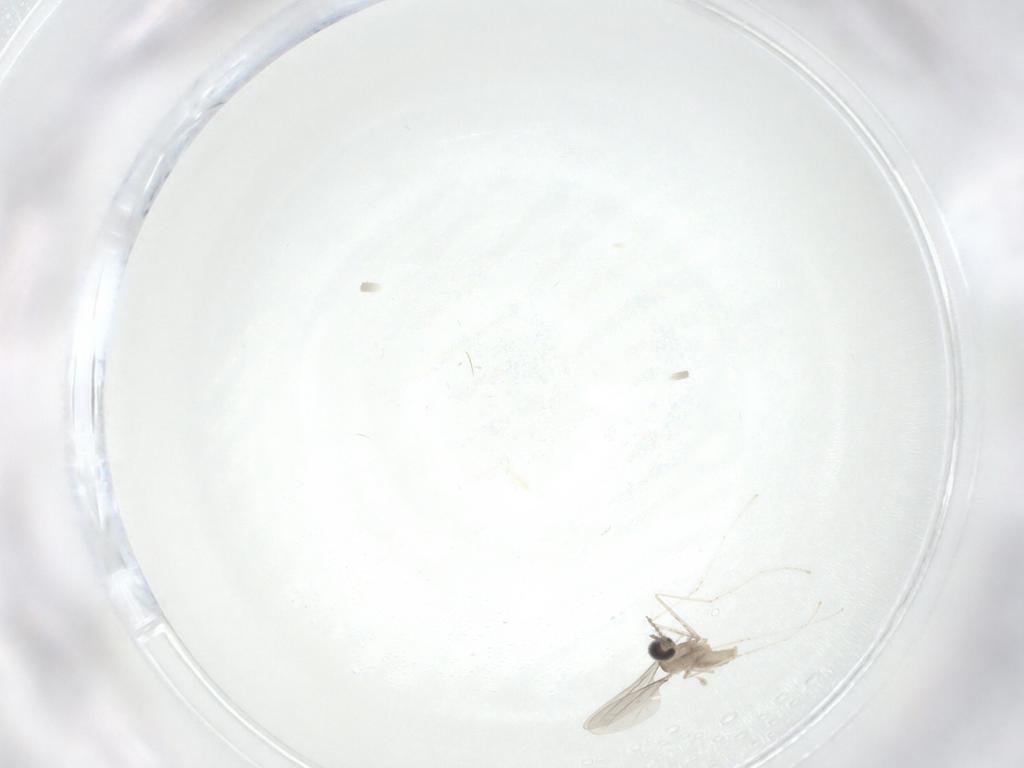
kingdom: Animalia
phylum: Arthropoda
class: Insecta
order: Diptera
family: Cecidomyiidae
